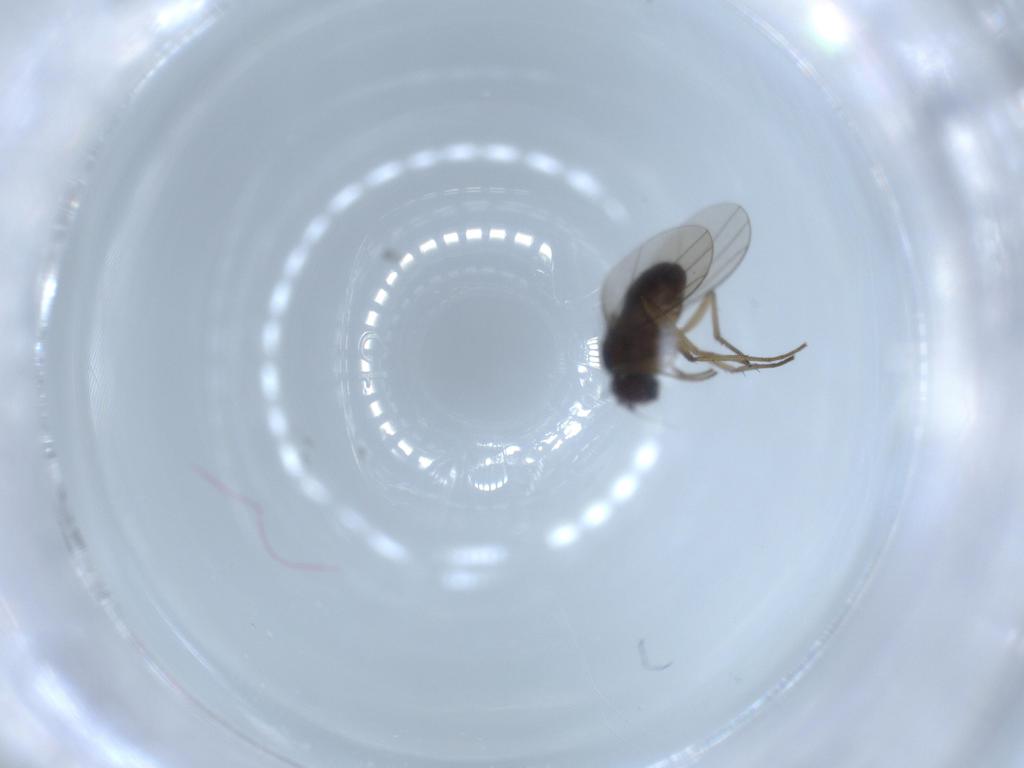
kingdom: Animalia
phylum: Arthropoda
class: Insecta
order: Diptera
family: Dolichopodidae
